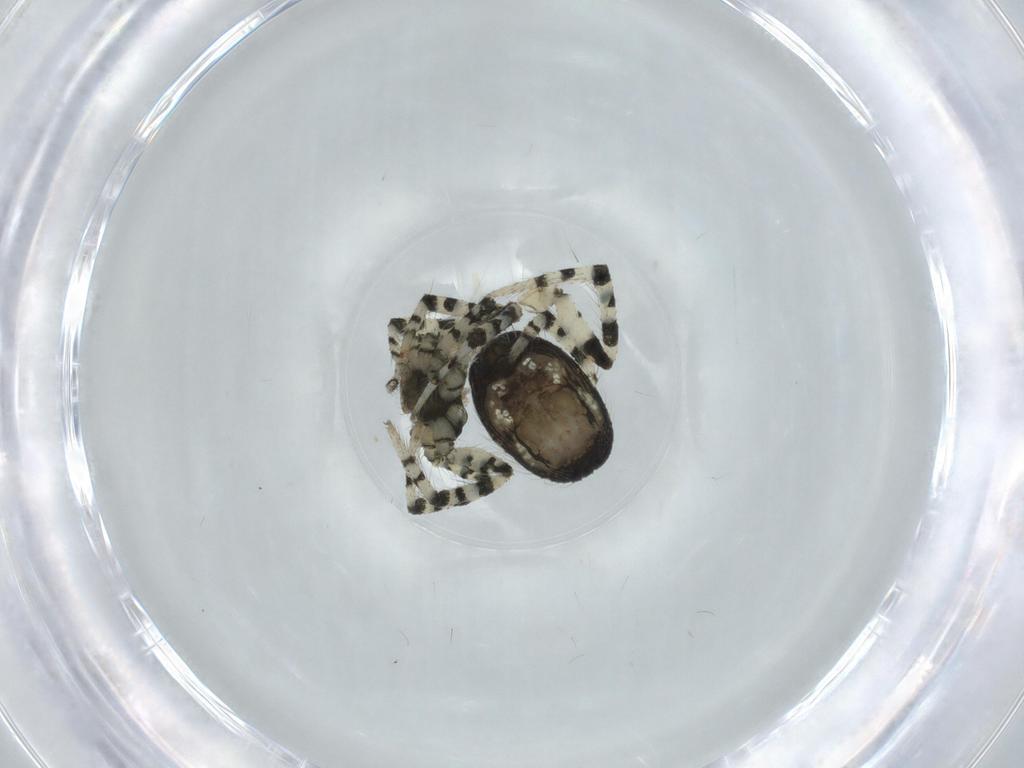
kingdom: Animalia
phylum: Arthropoda
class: Arachnida
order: Araneae
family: Theridiidae
